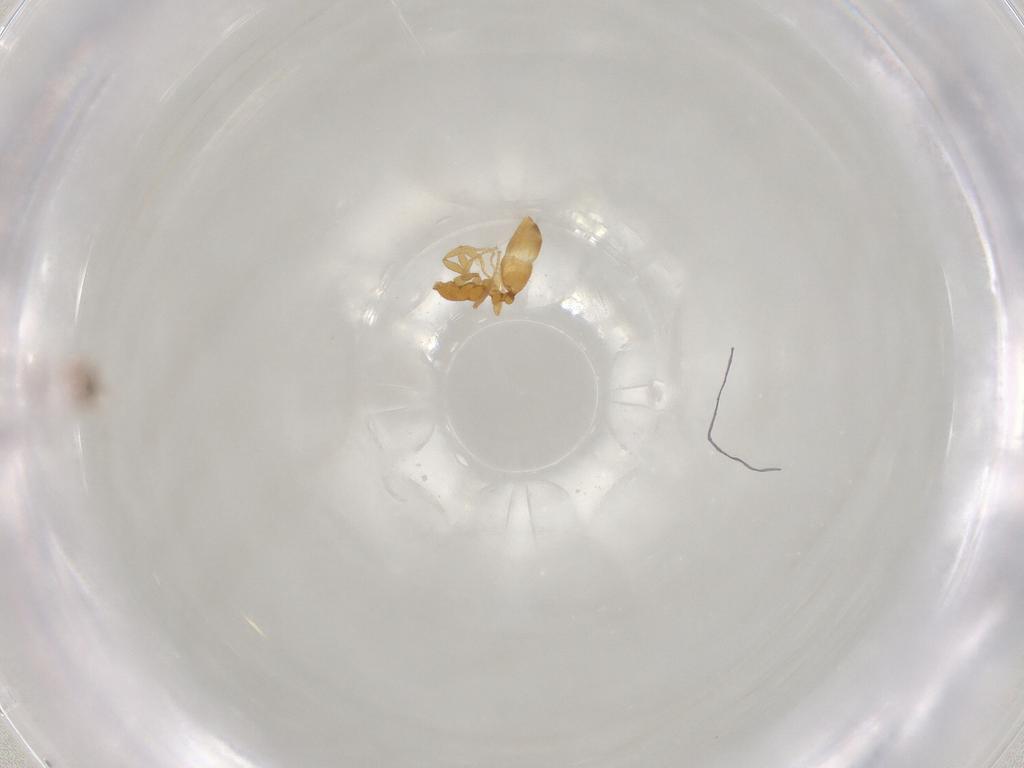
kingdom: Animalia
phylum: Arthropoda
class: Insecta
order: Hymenoptera
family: Formicidae
